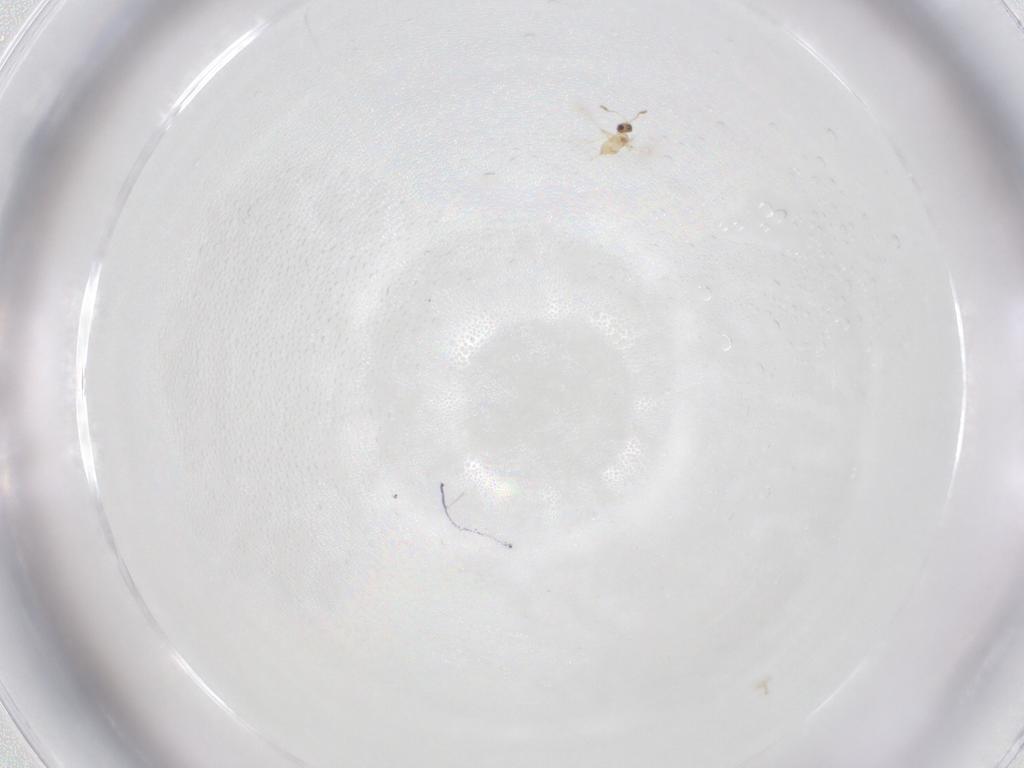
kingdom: Animalia
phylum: Arthropoda
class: Insecta
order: Hymenoptera
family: Mymaridae
